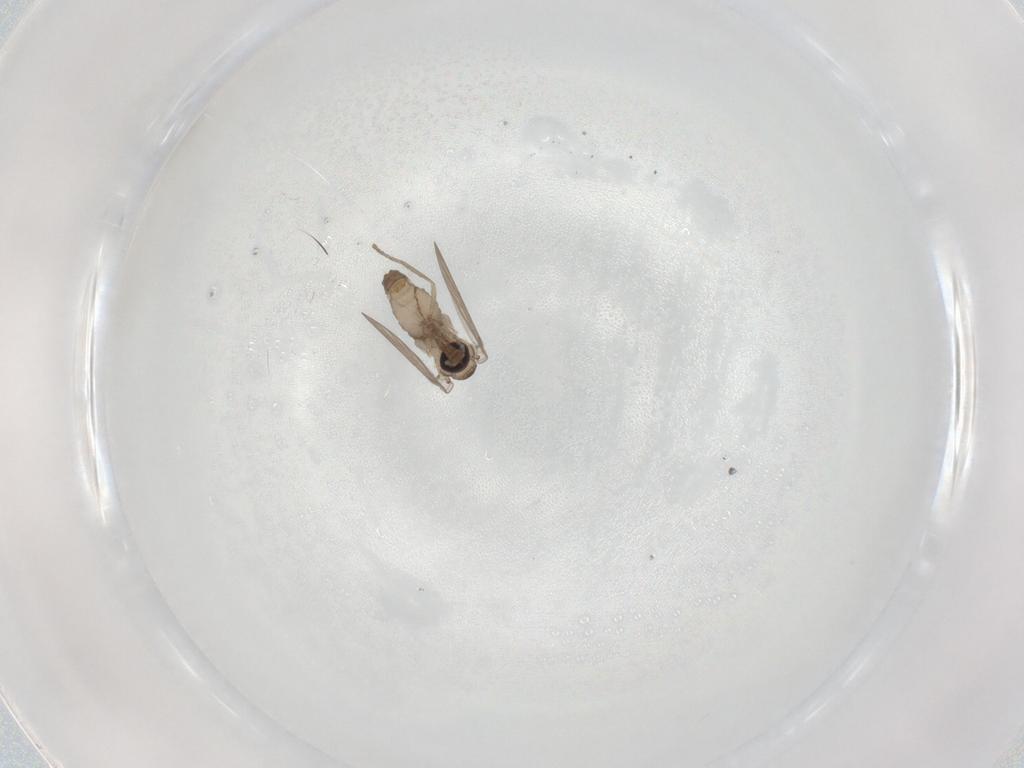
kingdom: Animalia
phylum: Arthropoda
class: Insecta
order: Diptera
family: Psychodidae
